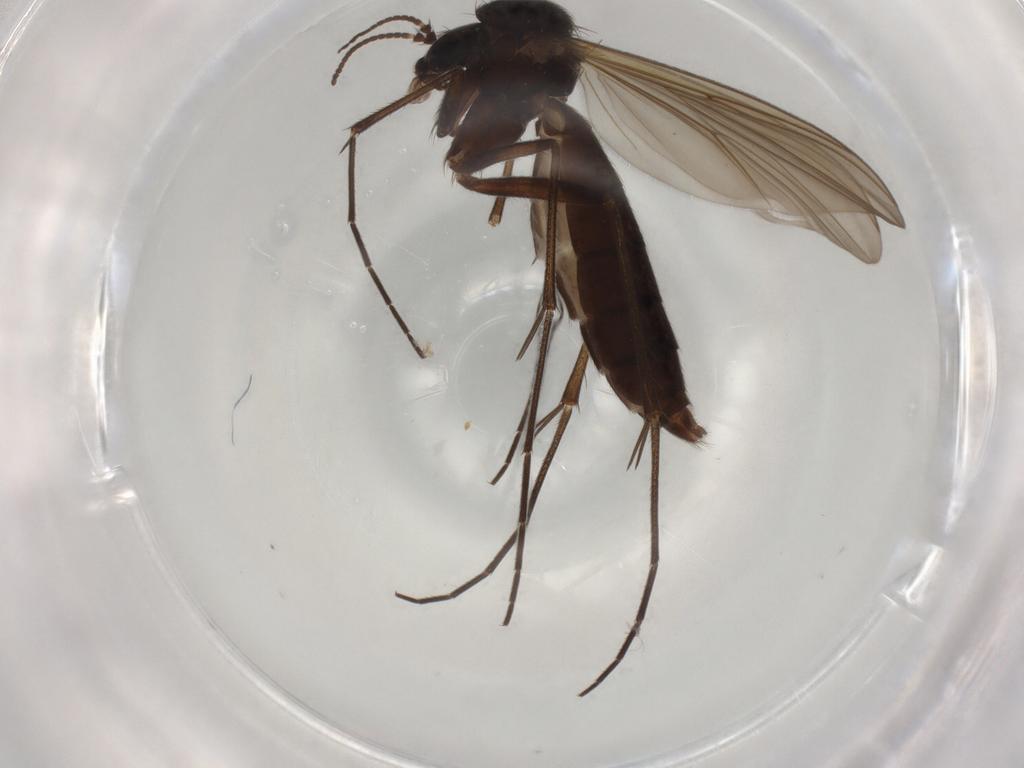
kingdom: Animalia
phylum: Arthropoda
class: Insecta
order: Diptera
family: Psychodidae
